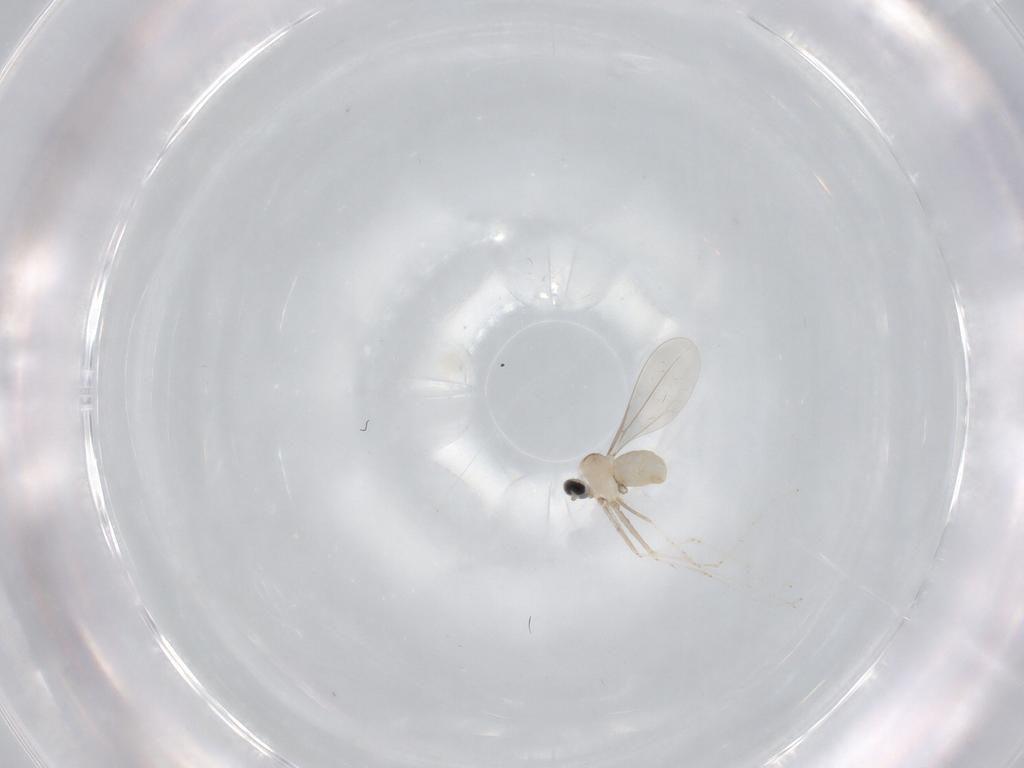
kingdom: Animalia
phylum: Arthropoda
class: Insecta
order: Diptera
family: Cecidomyiidae
